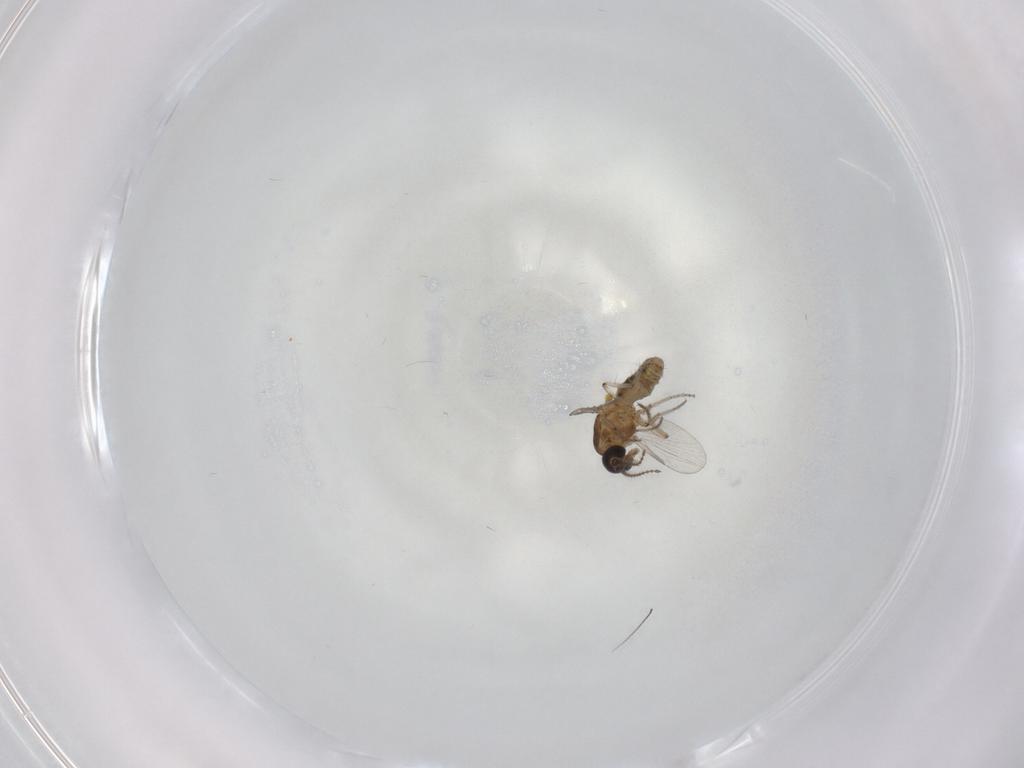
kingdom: Animalia
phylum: Arthropoda
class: Insecta
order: Diptera
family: Ceratopogonidae
